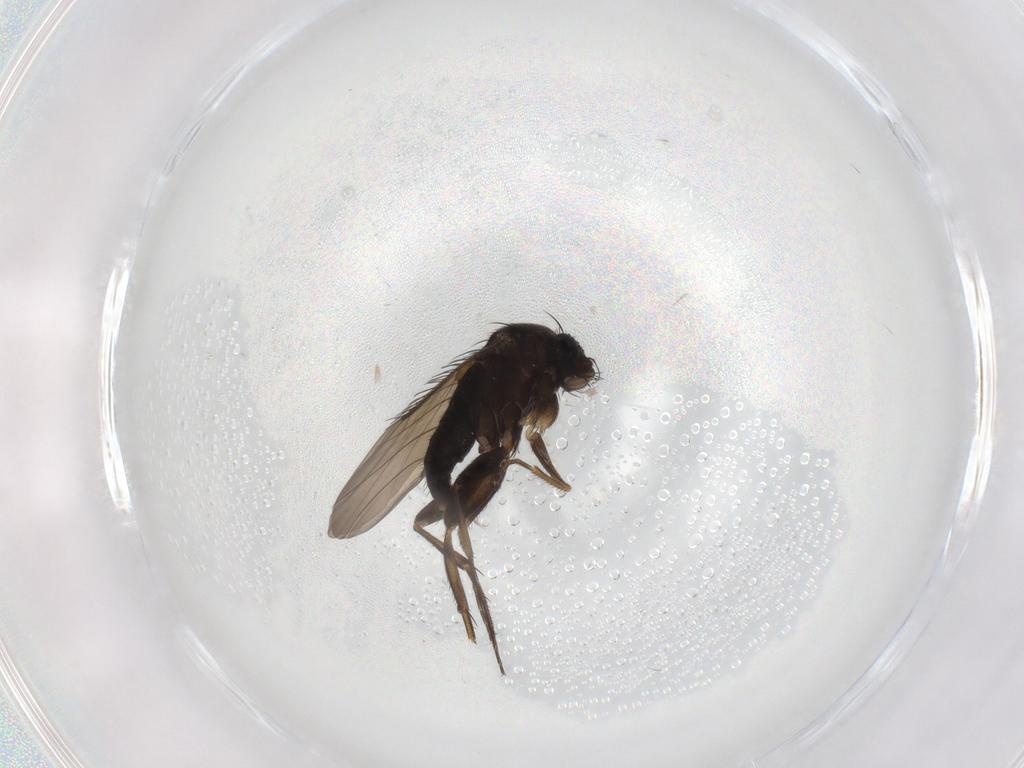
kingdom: Animalia
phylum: Arthropoda
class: Insecta
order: Diptera
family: Phoridae
